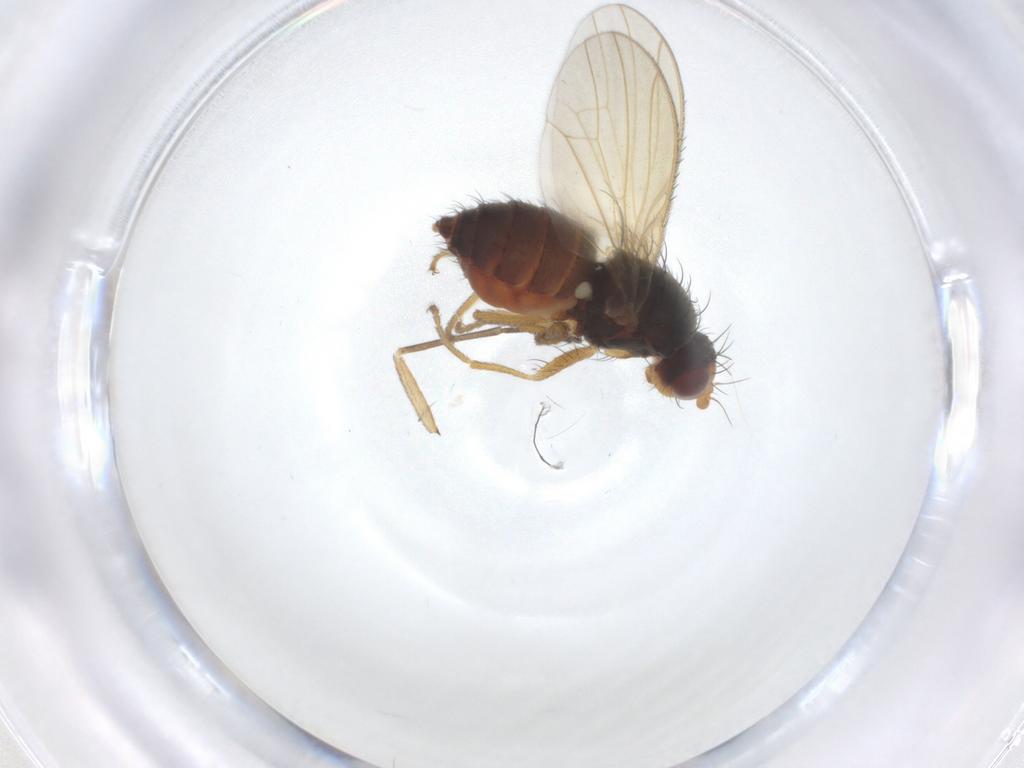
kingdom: Animalia
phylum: Arthropoda
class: Insecta
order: Diptera
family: Heleomyzidae
